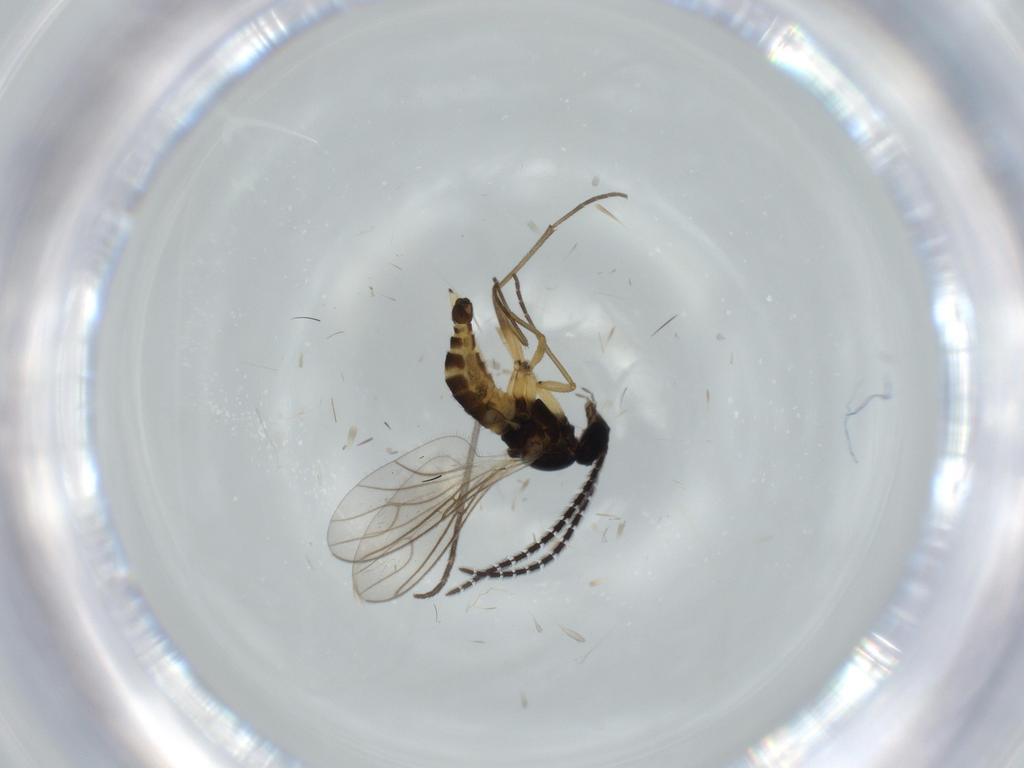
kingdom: Animalia
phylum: Arthropoda
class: Insecta
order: Diptera
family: Sciaridae
